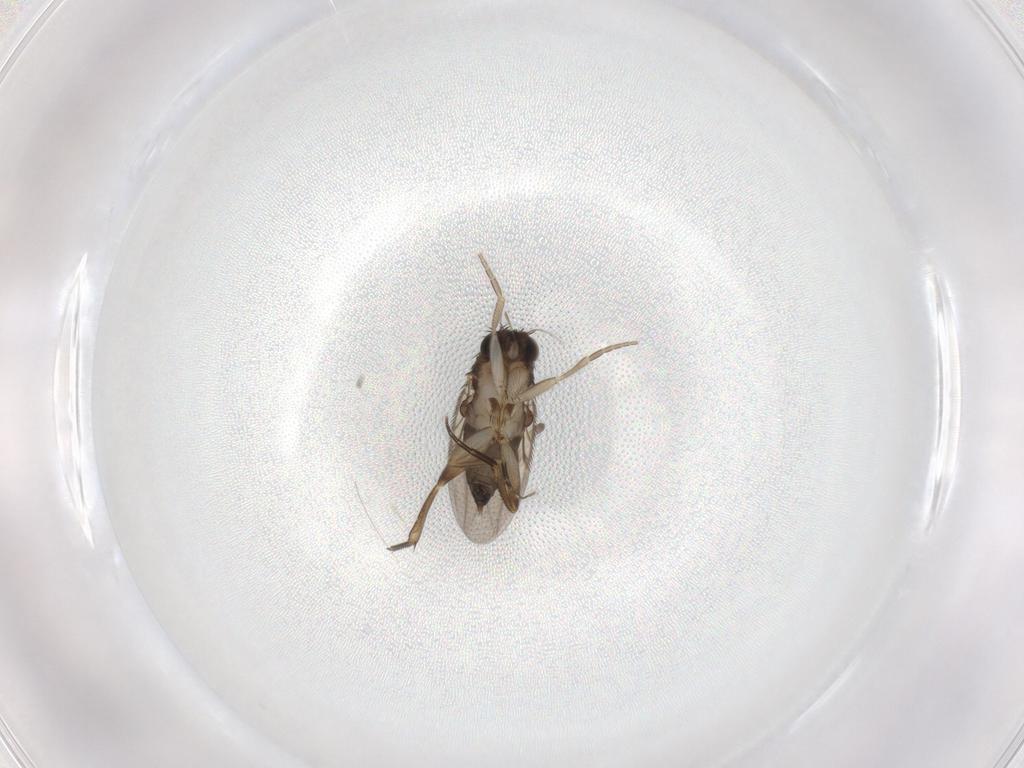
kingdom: Animalia
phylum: Arthropoda
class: Insecta
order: Diptera
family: Phoridae
